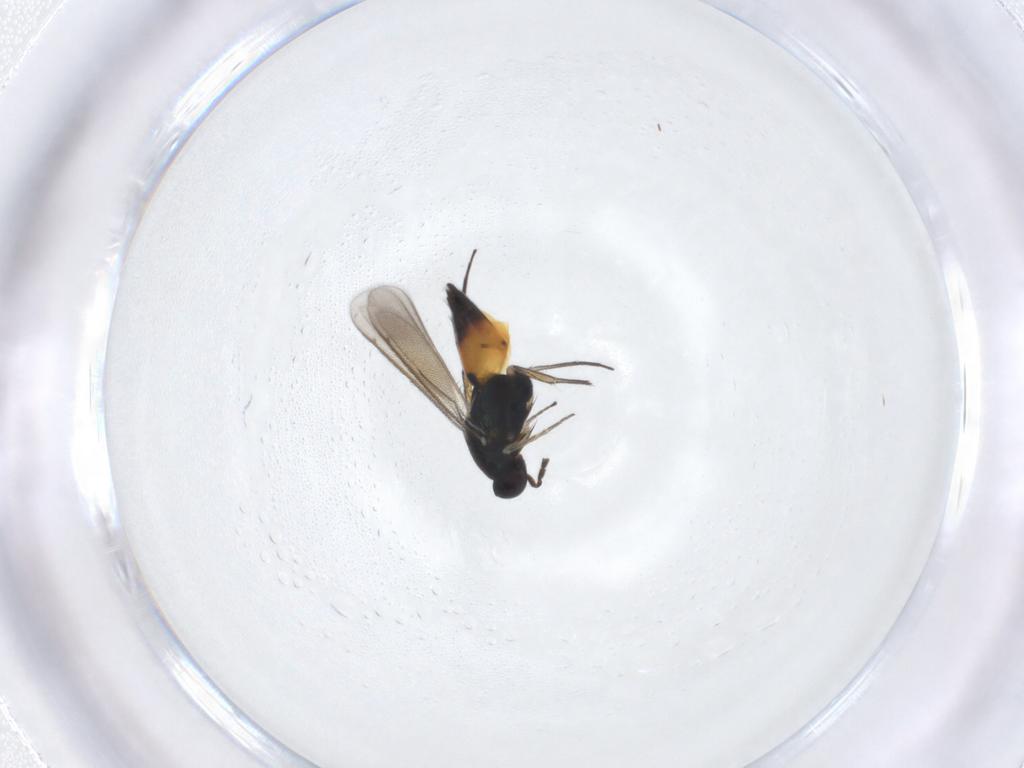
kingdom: Animalia
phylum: Arthropoda
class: Insecta
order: Hymenoptera
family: Eulophidae
